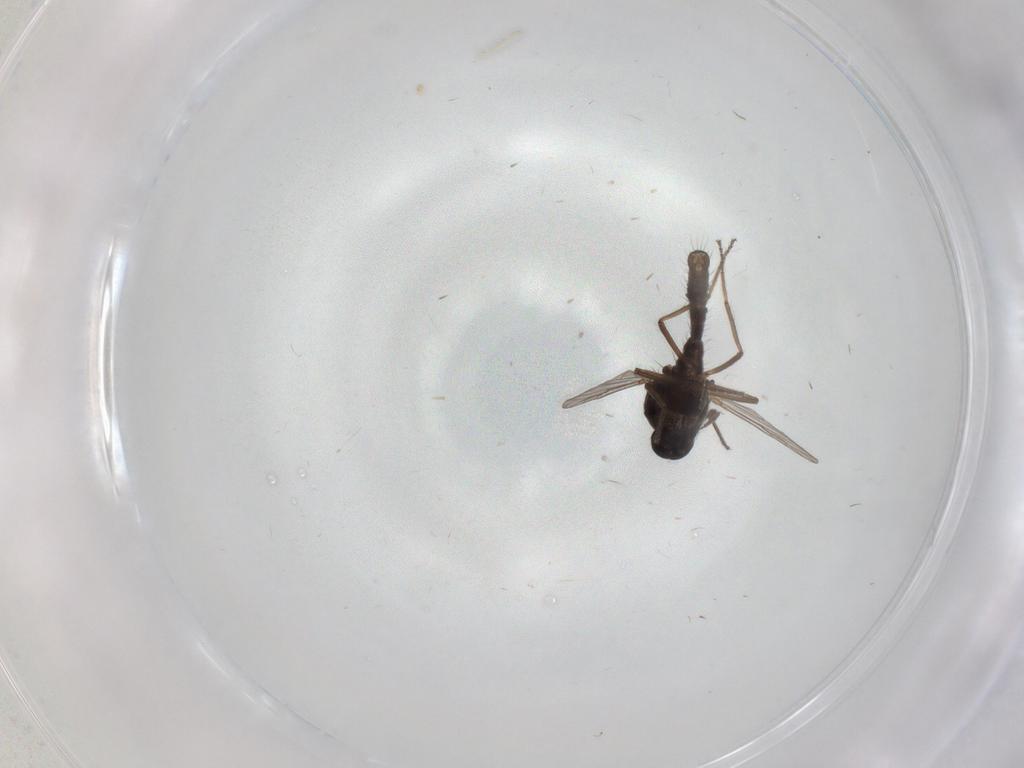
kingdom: Animalia
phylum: Arthropoda
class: Insecta
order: Diptera
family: Ceratopogonidae
